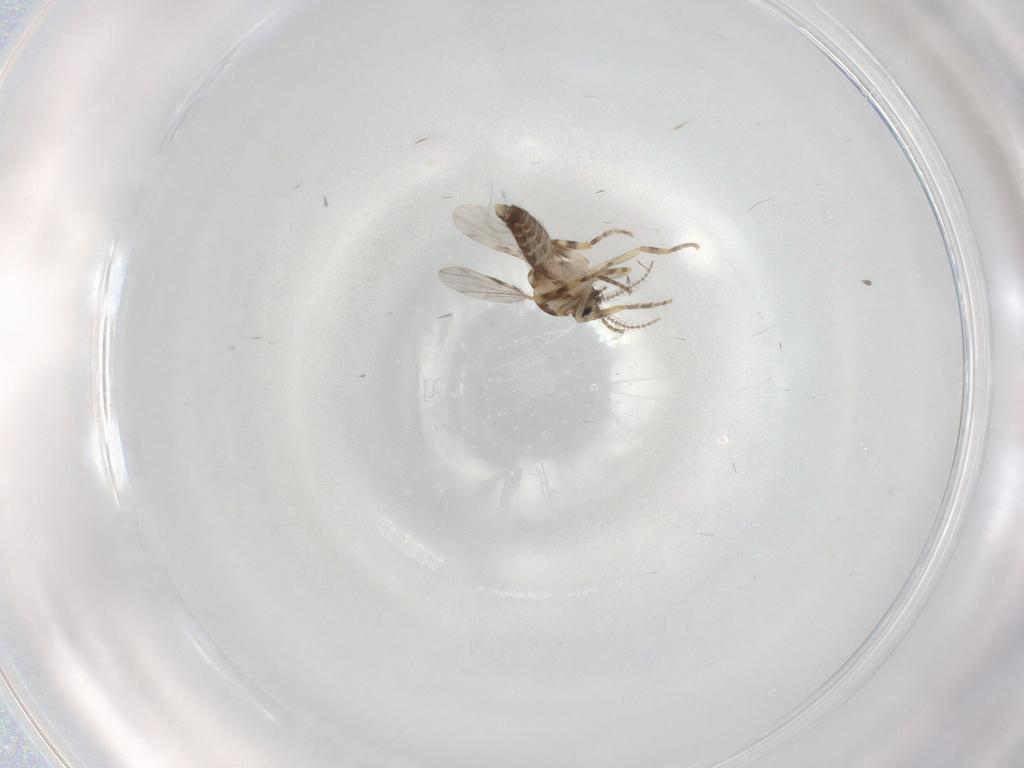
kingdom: Animalia
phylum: Arthropoda
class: Insecta
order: Diptera
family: Ceratopogonidae
